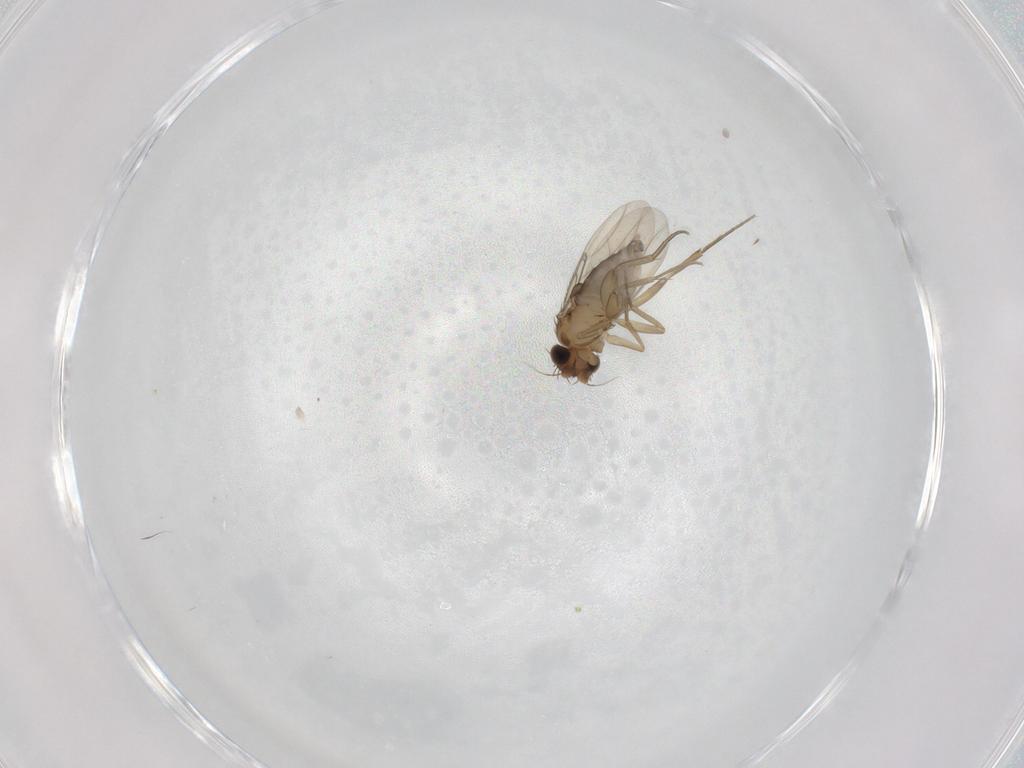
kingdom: Animalia
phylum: Arthropoda
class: Insecta
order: Diptera
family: Phoridae
